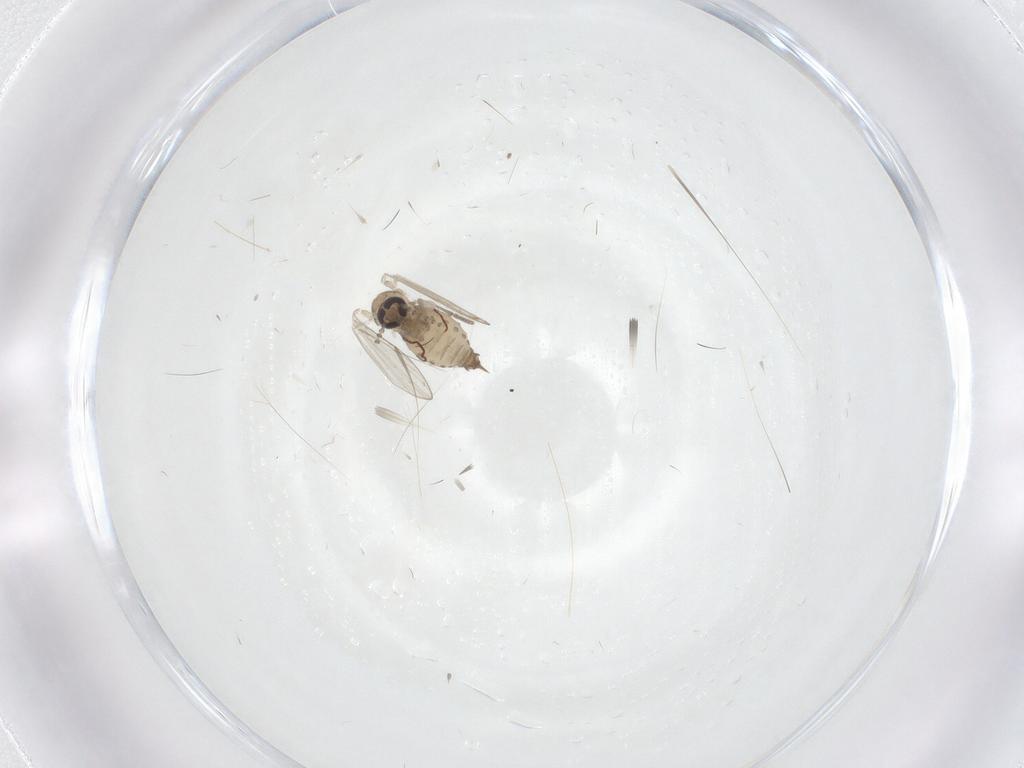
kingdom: Animalia
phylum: Arthropoda
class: Insecta
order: Diptera
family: Psychodidae
